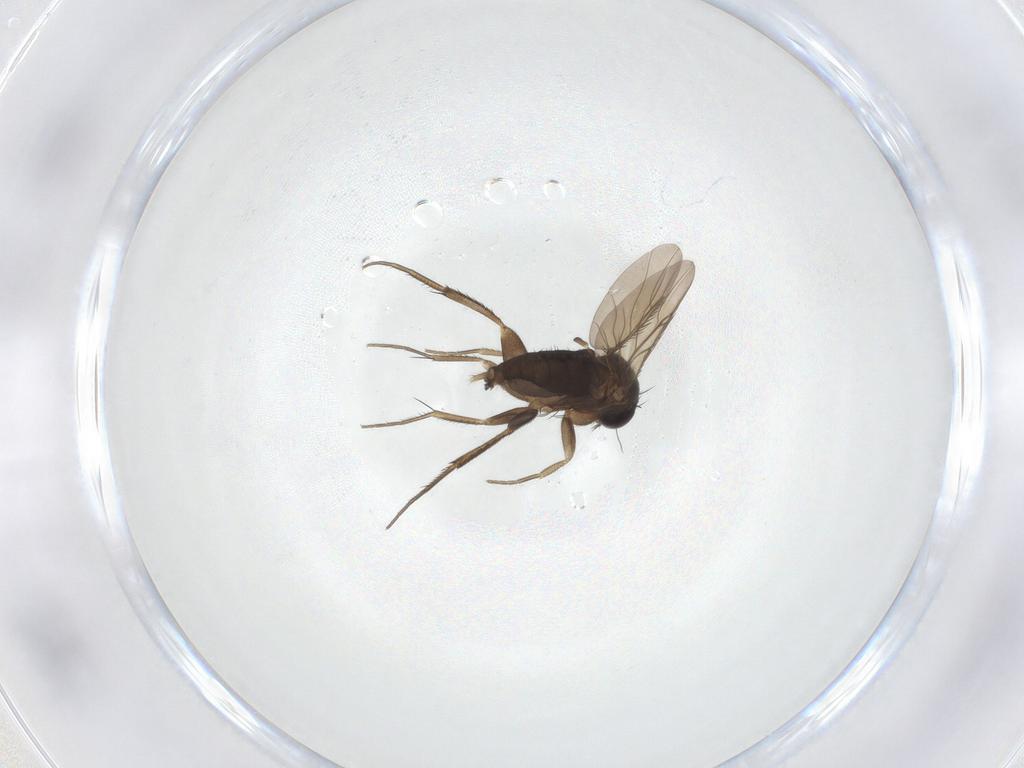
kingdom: Animalia
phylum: Arthropoda
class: Insecta
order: Diptera
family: Phoridae
